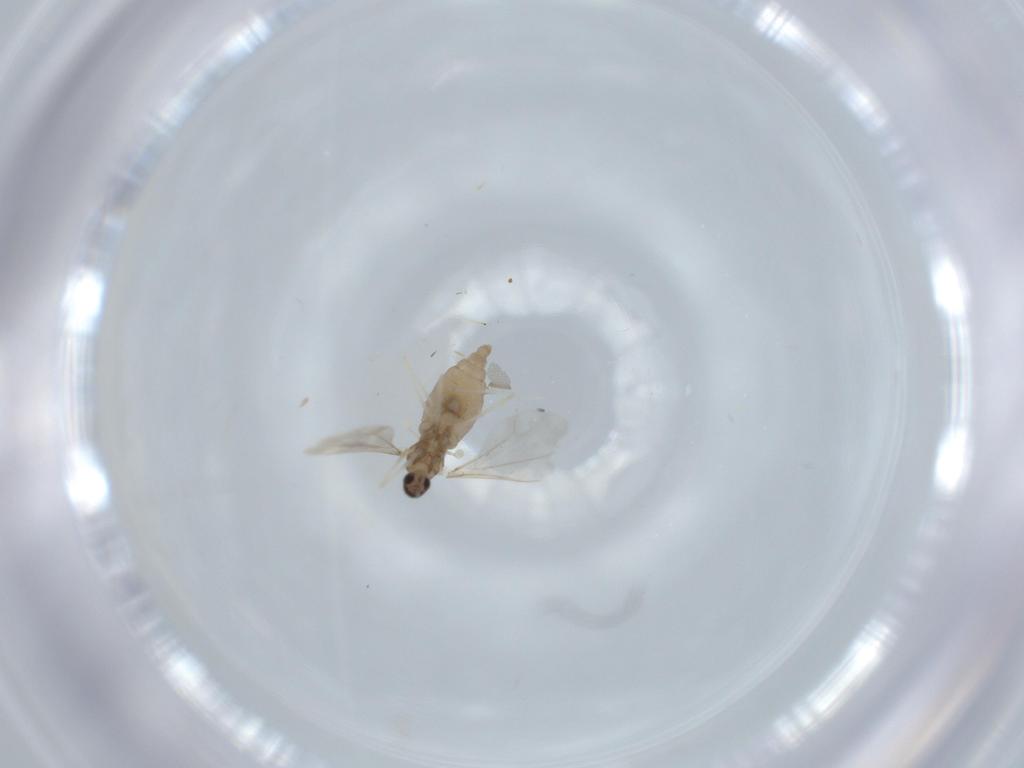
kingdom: Animalia
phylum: Arthropoda
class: Insecta
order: Diptera
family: Cecidomyiidae
